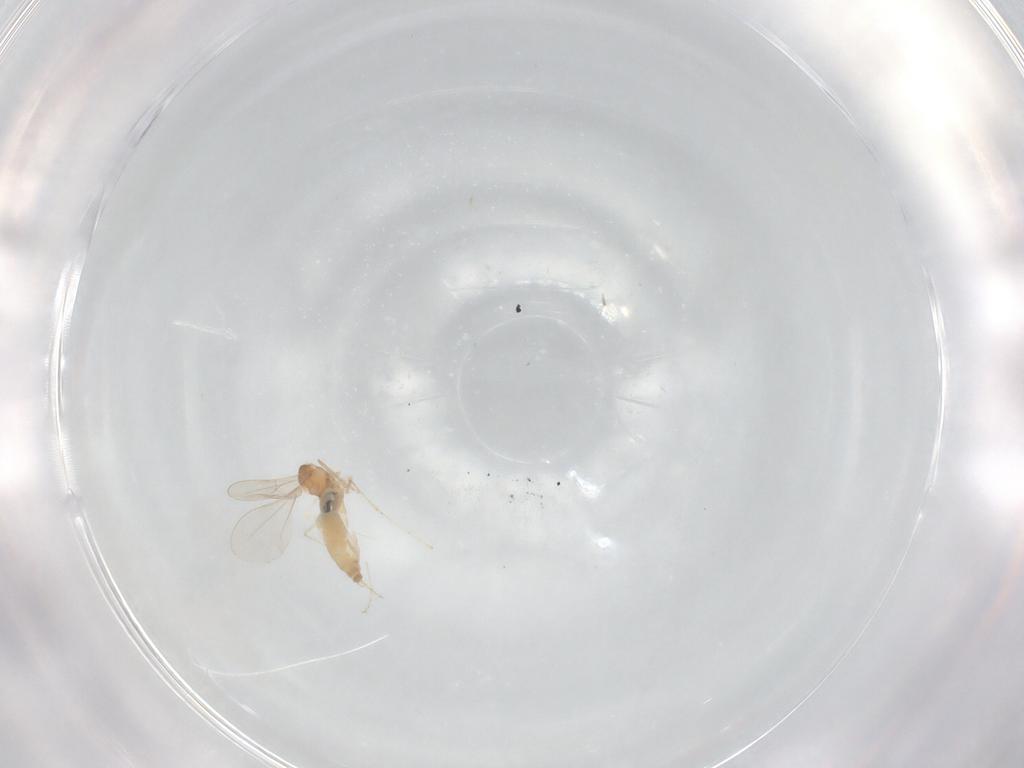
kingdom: Animalia
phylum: Arthropoda
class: Insecta
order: Diptera
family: Cecidomyiidae
